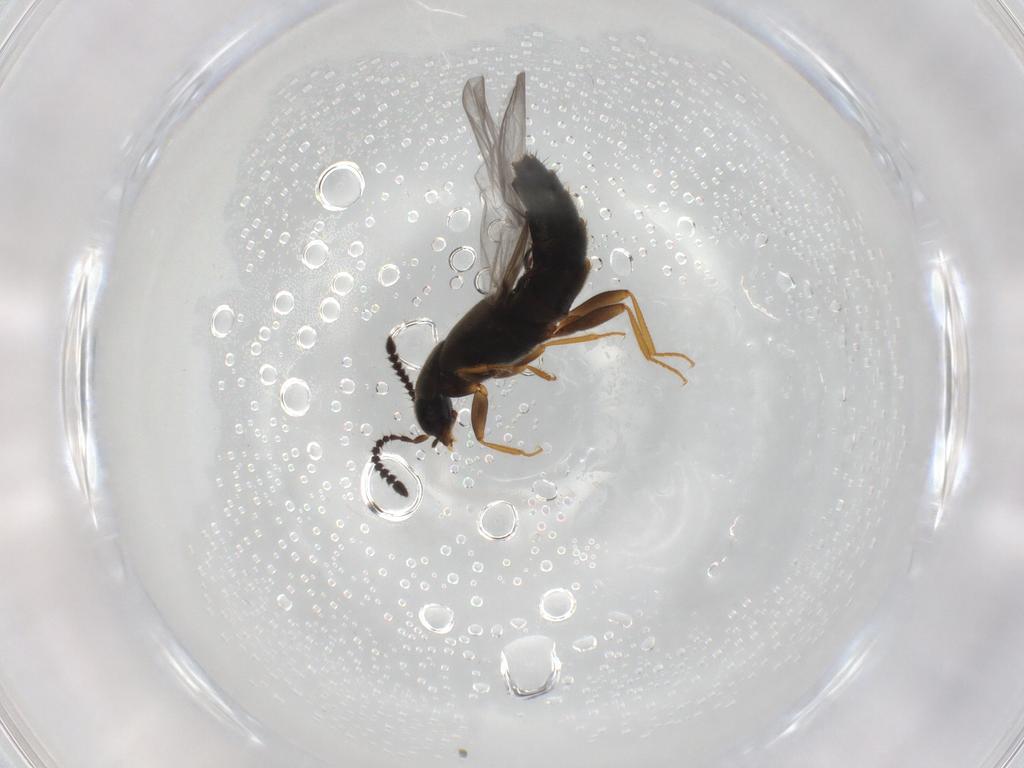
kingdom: Animalia
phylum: Arthropoda
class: Insecta
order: Coleoptera
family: Staphylinidae
